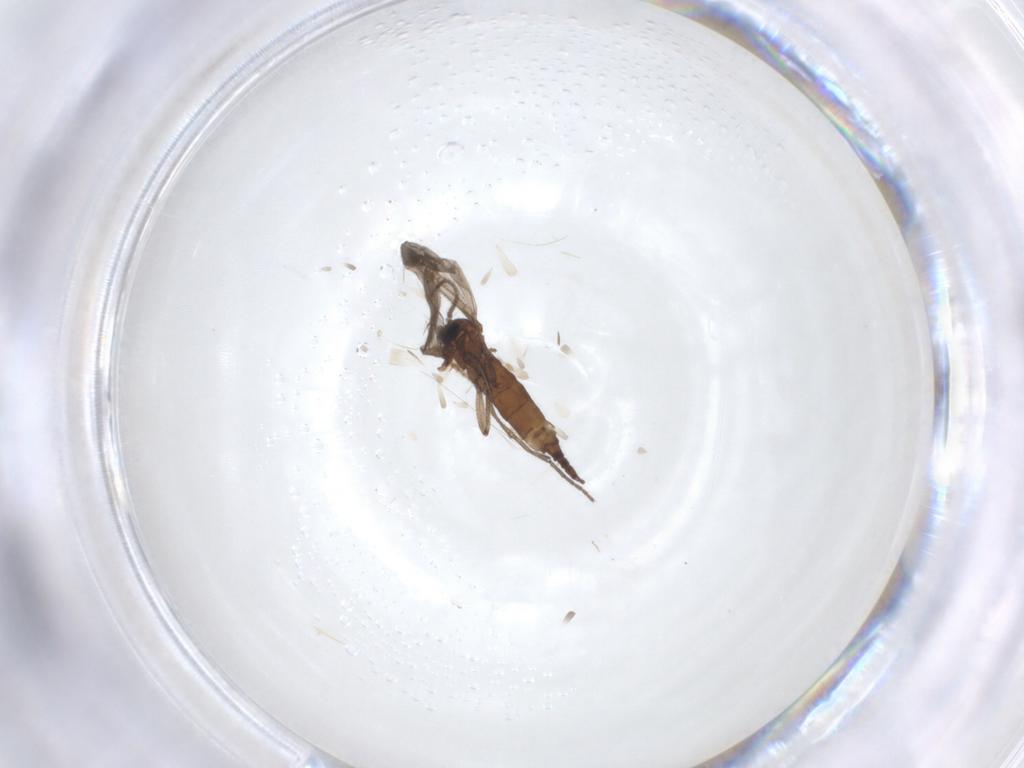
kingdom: Animalia
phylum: Arthropoda
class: Insecta
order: Diptera
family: Sciaridae
